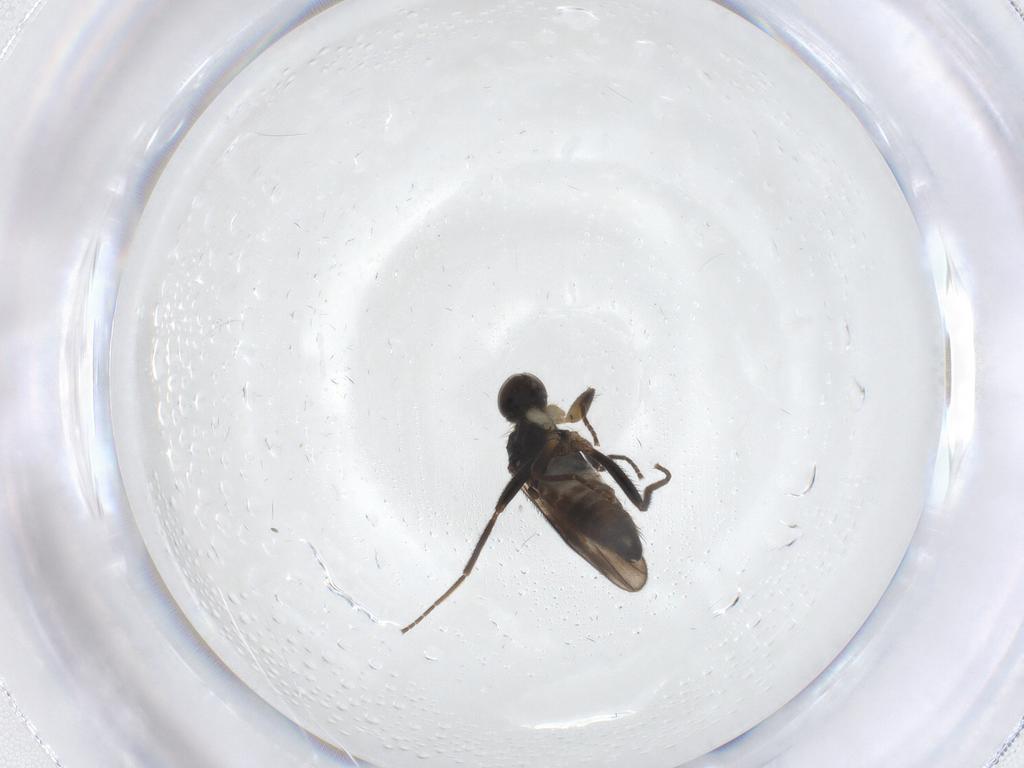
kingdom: Animalia
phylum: Arthropoda
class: Insecta
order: Diptera
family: Hybotidae
